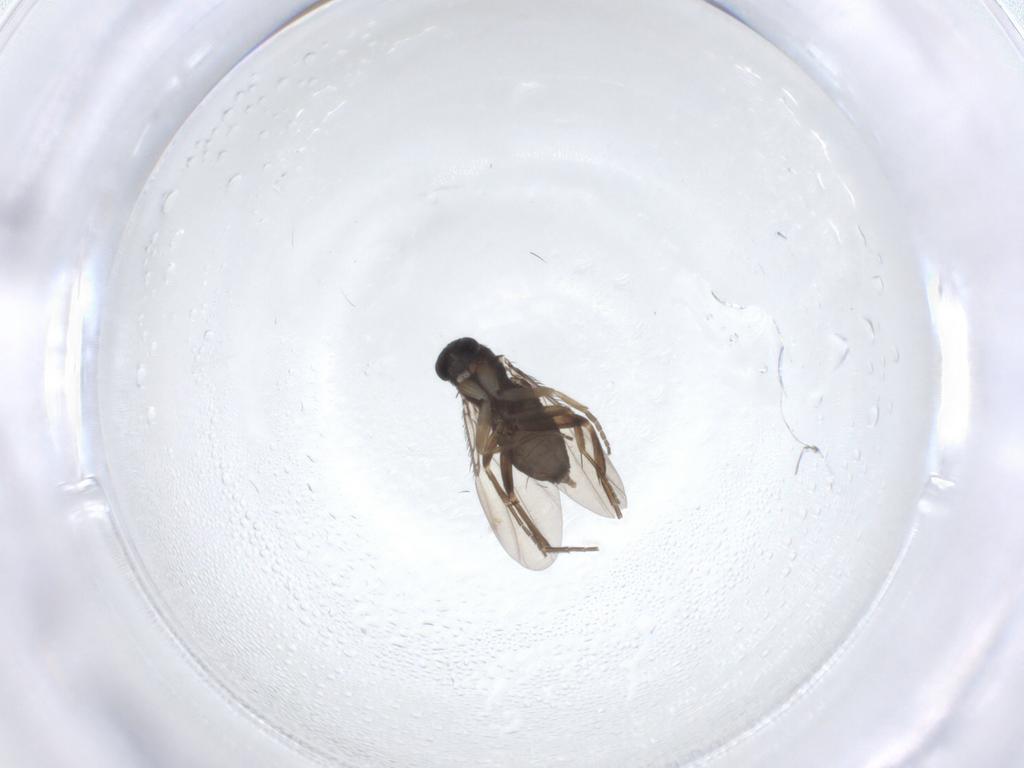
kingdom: Animalia
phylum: Arthropoda
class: Insecta
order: Diptera
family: Phoridae
